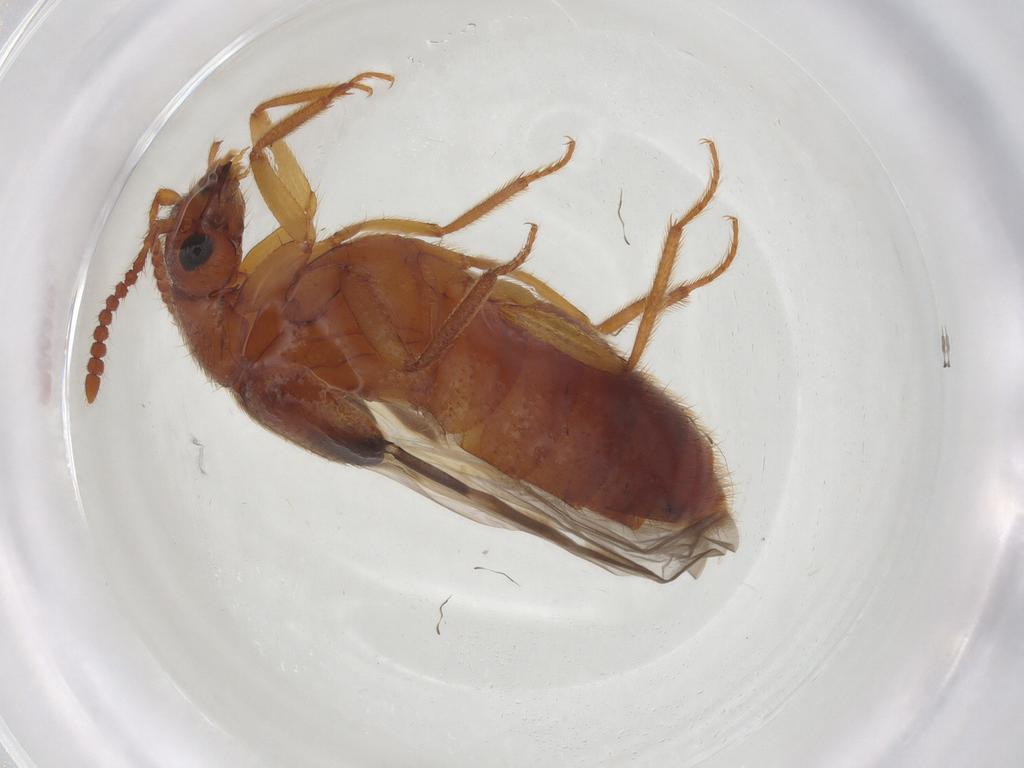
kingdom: Animalia
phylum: Arthropoda
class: Insecta
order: Coleoptera
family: Staphylinidae
